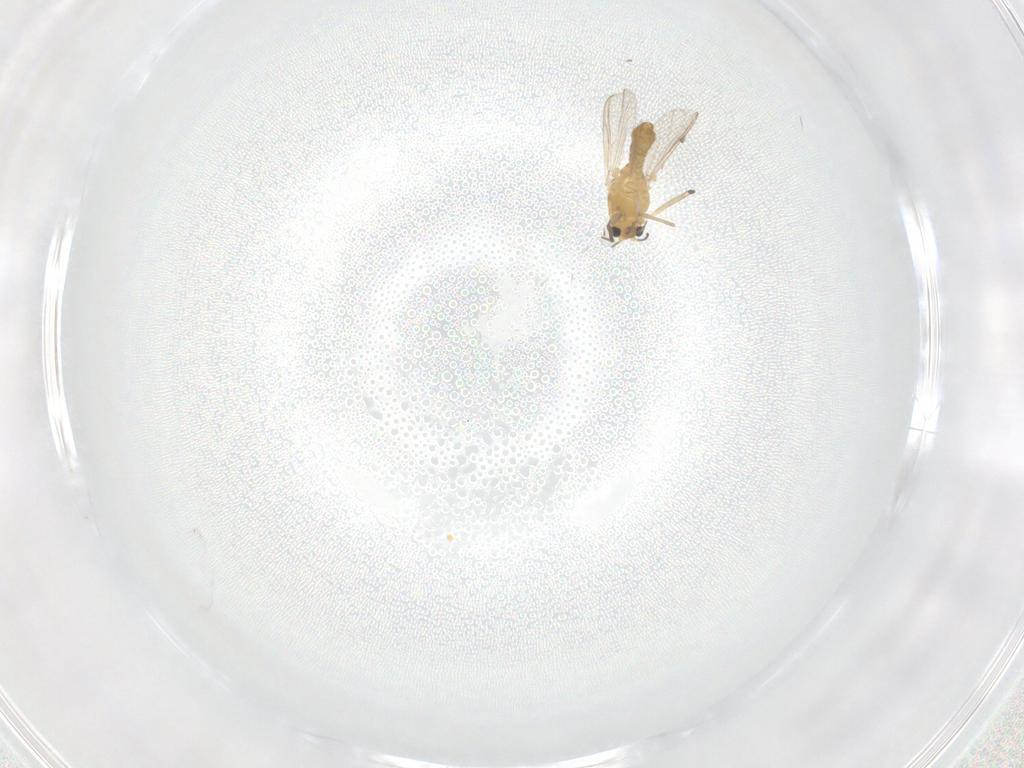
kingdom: Animalia
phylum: Arthropoda
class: Insecta
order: Diptera
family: Chironomidae
